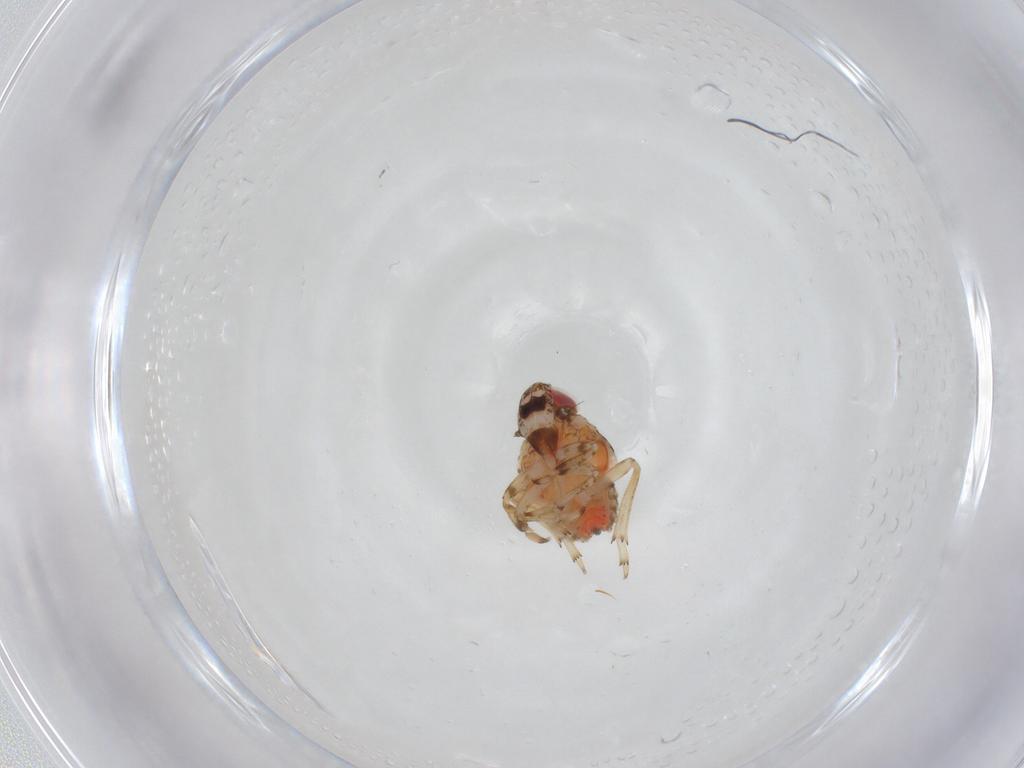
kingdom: Animalia
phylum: Arthropoda
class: Insecta
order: Hemiptera
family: Issidae
